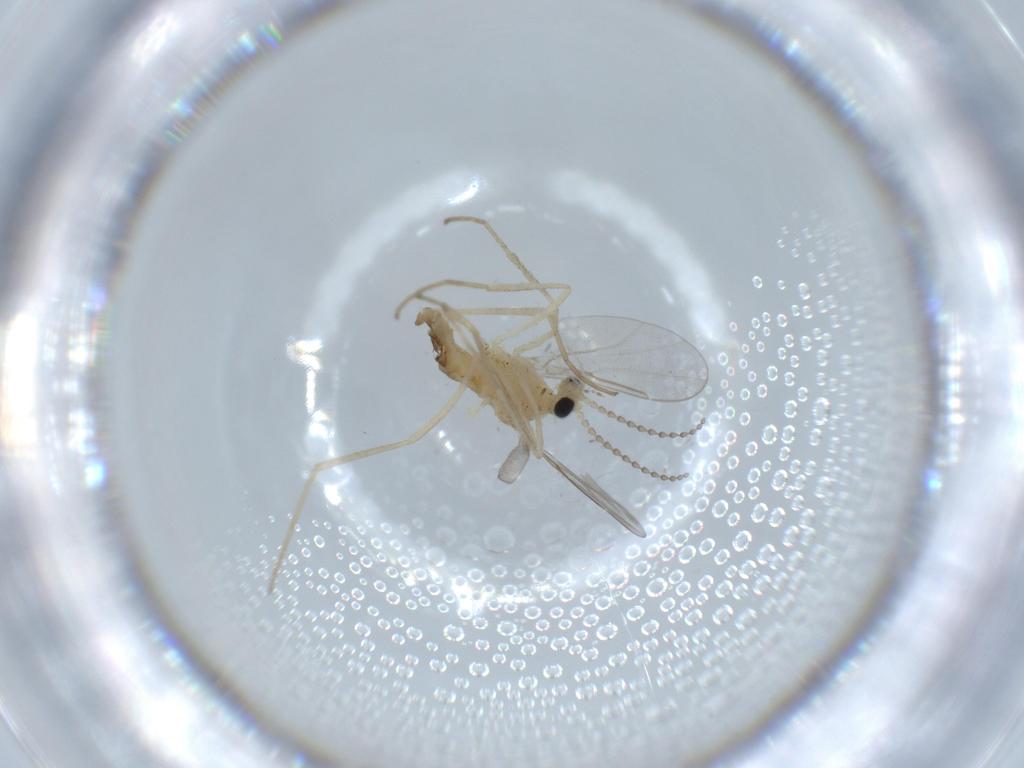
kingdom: Animalia
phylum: Arthropoda
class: Insecta
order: Diptera
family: Cecidomyiidae
